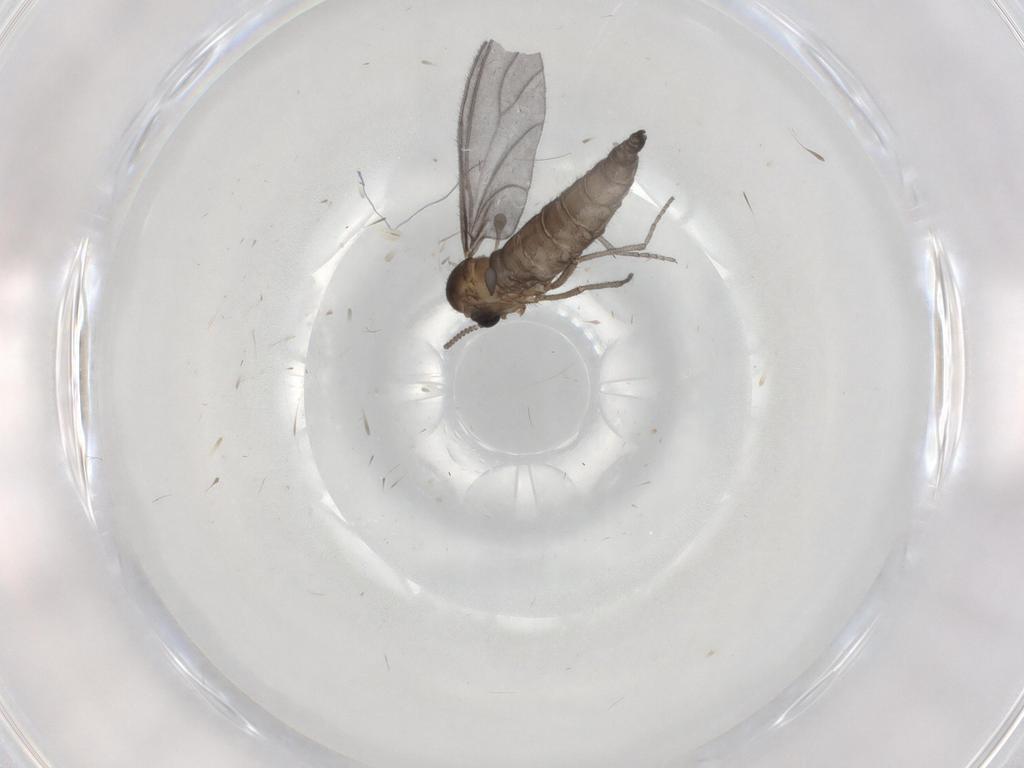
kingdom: Animalia
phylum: Arthropoda
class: Insecta
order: Diptera
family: Sciaridae
